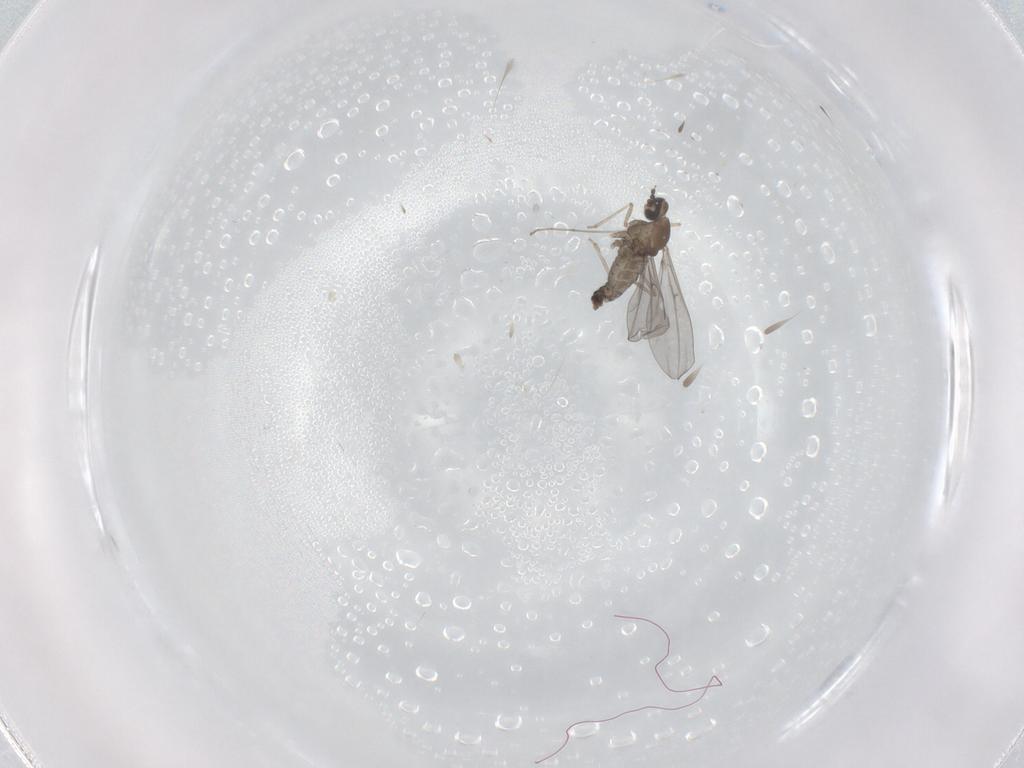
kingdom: Animalia
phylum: Arthropoda
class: Insecta
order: Diptera
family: Cecidomyiidae
